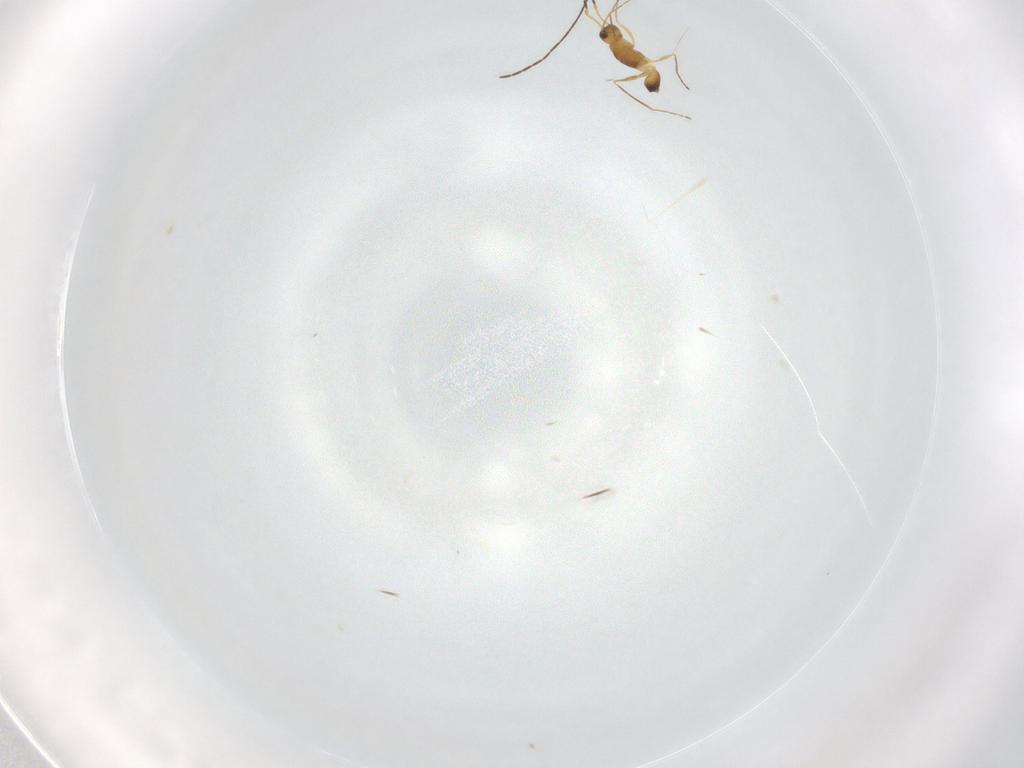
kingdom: Animalia
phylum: Arthropoda
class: Insecta
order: Hymenoptera
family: Mymaridae
